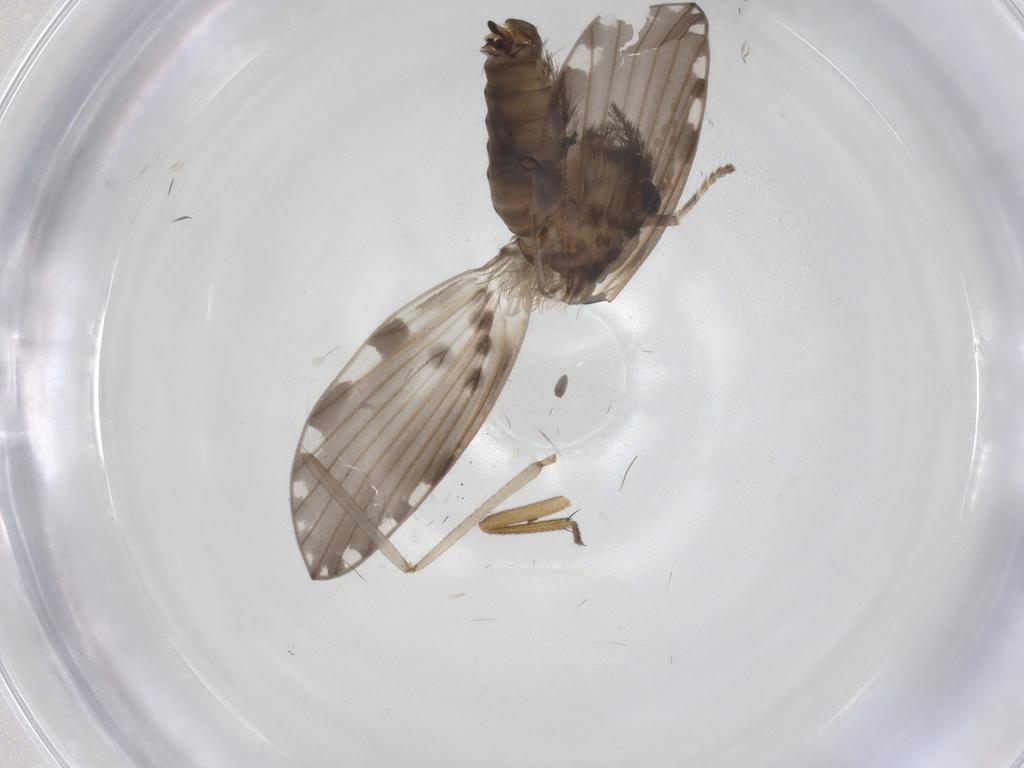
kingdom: Animalia
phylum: Arthropoda
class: Insecta
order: Diptera
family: Psychodidae
